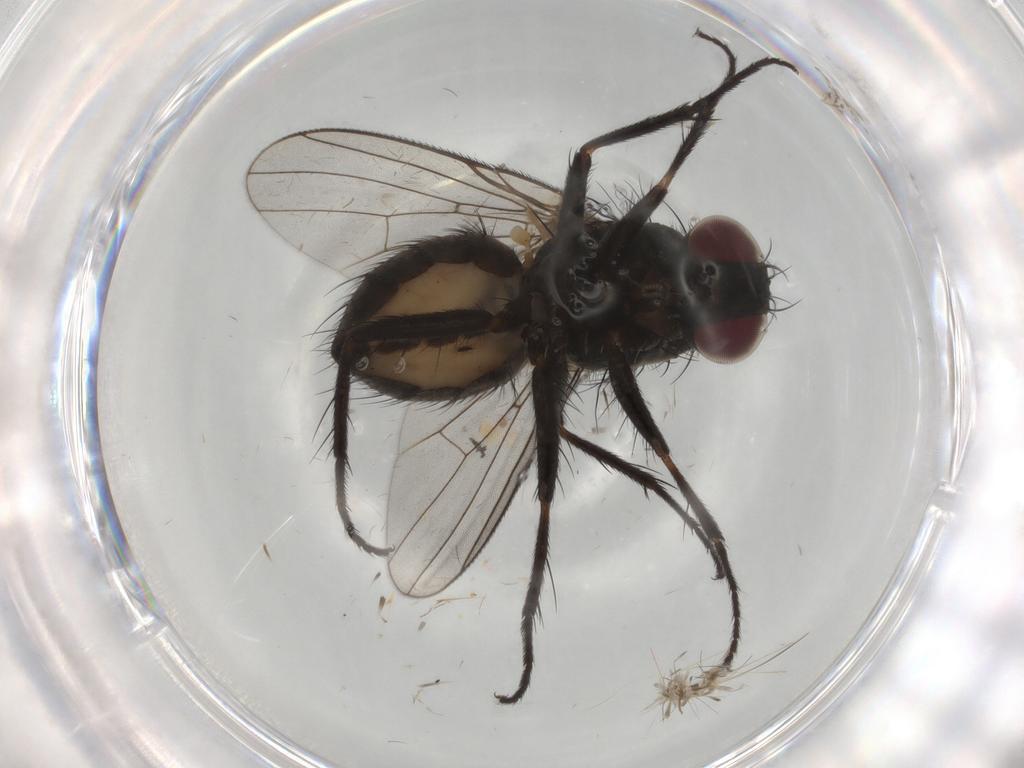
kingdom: Animalia
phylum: Arthropoda
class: Insecta
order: Diptera
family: Muscidae
